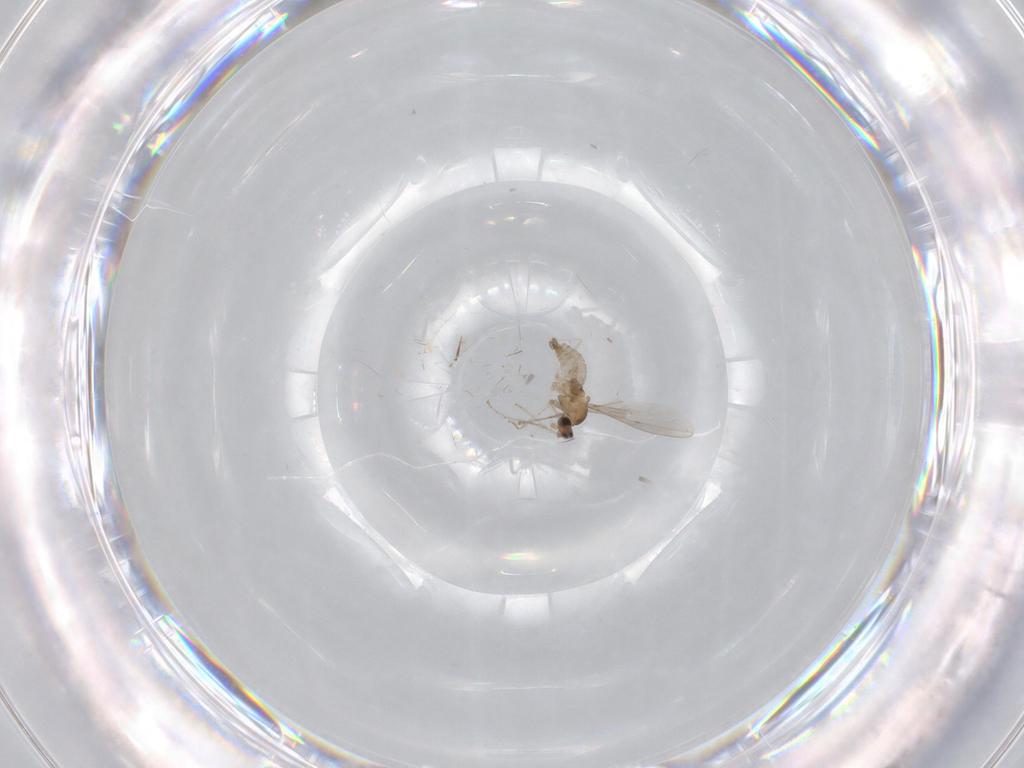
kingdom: Animalia
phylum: Arthropoda
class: Insecta
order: Diptera
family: Cecidomyiidae
